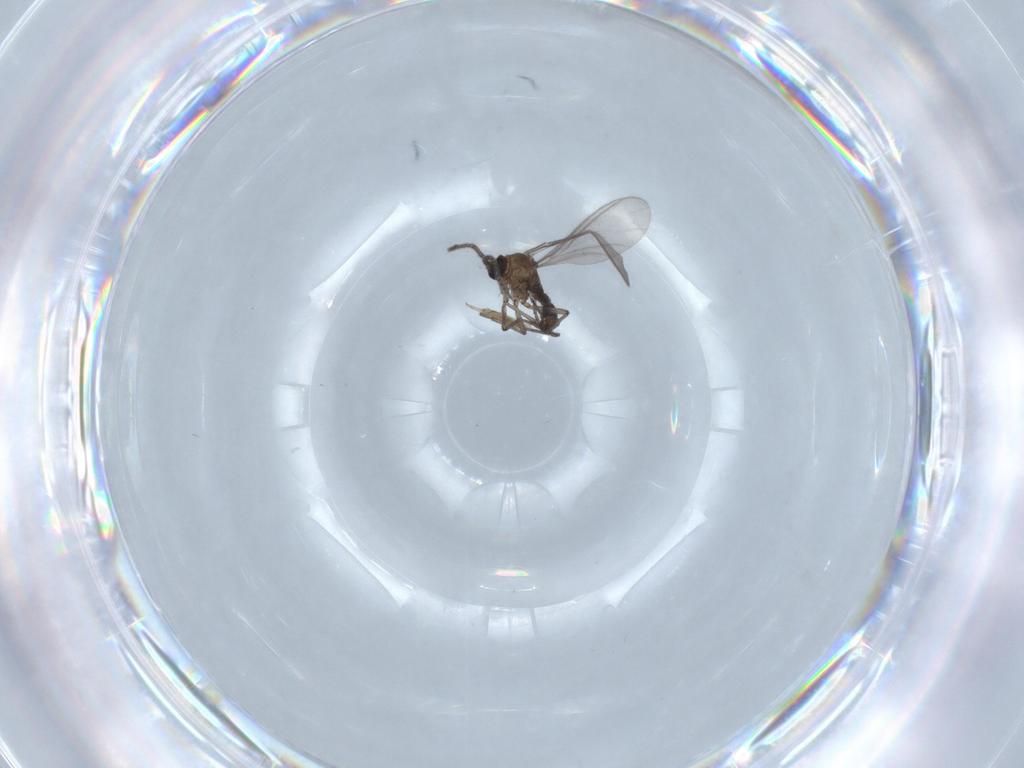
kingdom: Animalia
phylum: Arthropoda
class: Insecta
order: Diptera
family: Sciaridae
